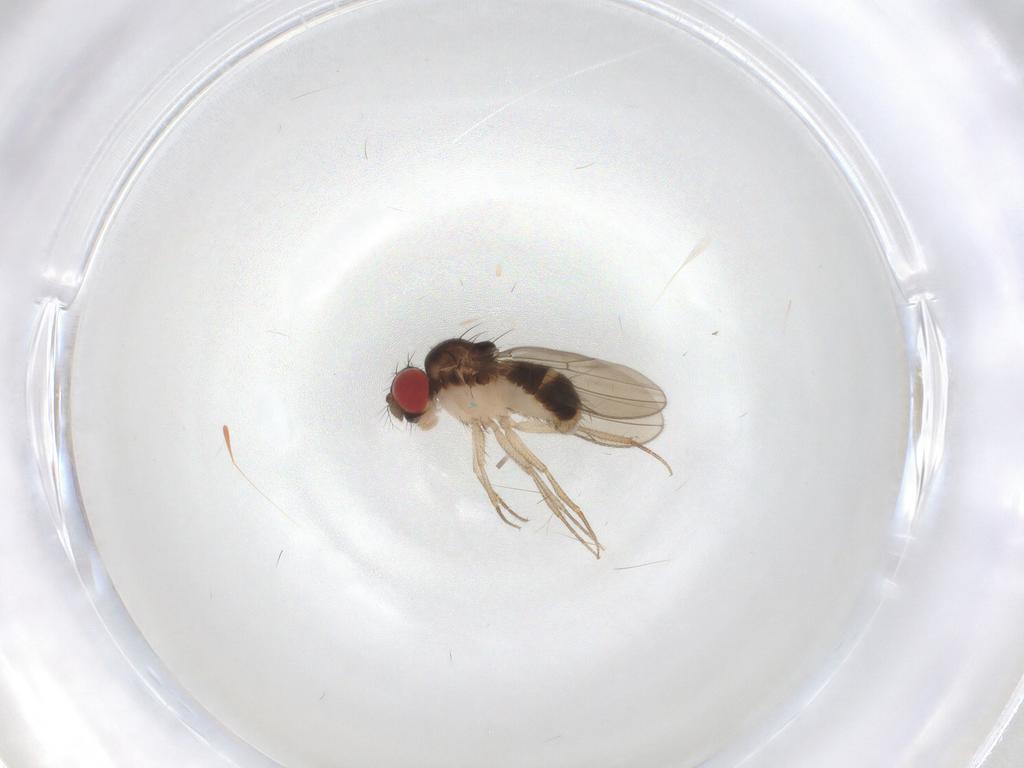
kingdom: Animalia
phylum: Arthropoda
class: Insecta
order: Diptera
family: Drosophilidae
